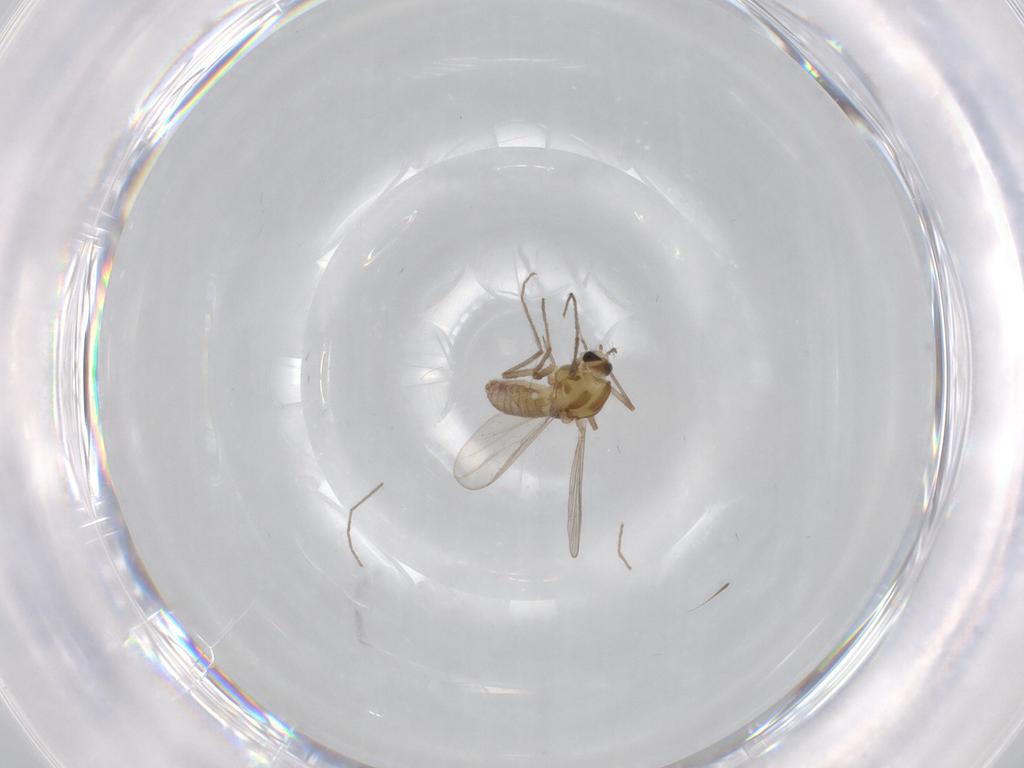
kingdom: Animalia
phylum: Arthropoda
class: Insecta
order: Diptera
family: Chironomidae
